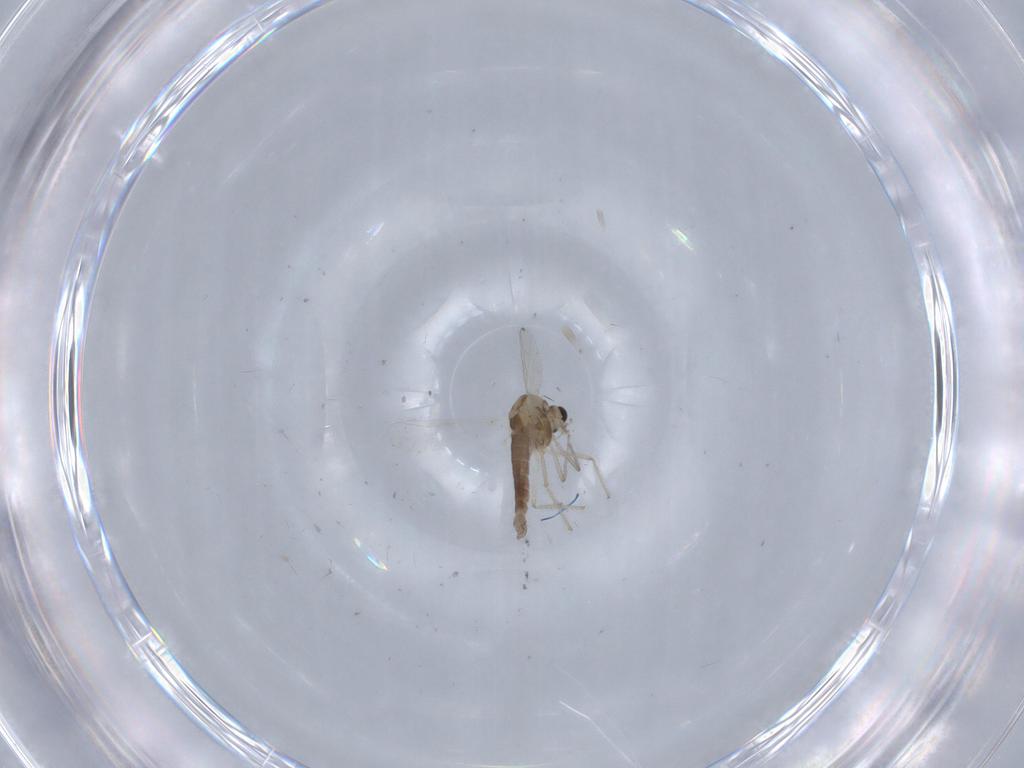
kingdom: Animalia
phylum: Arthropoda
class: Insecta
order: Diptera
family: Chironomidae
